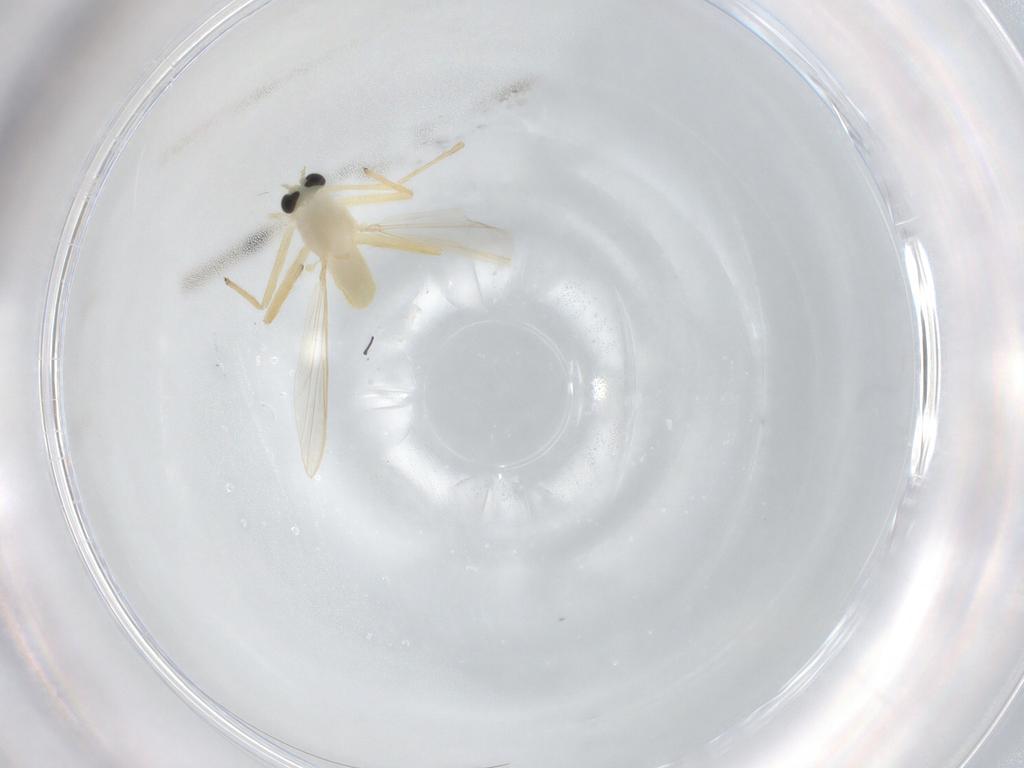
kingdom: Animalia
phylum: Arthropoda
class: Insecta
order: Diptera
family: Chironomidae
